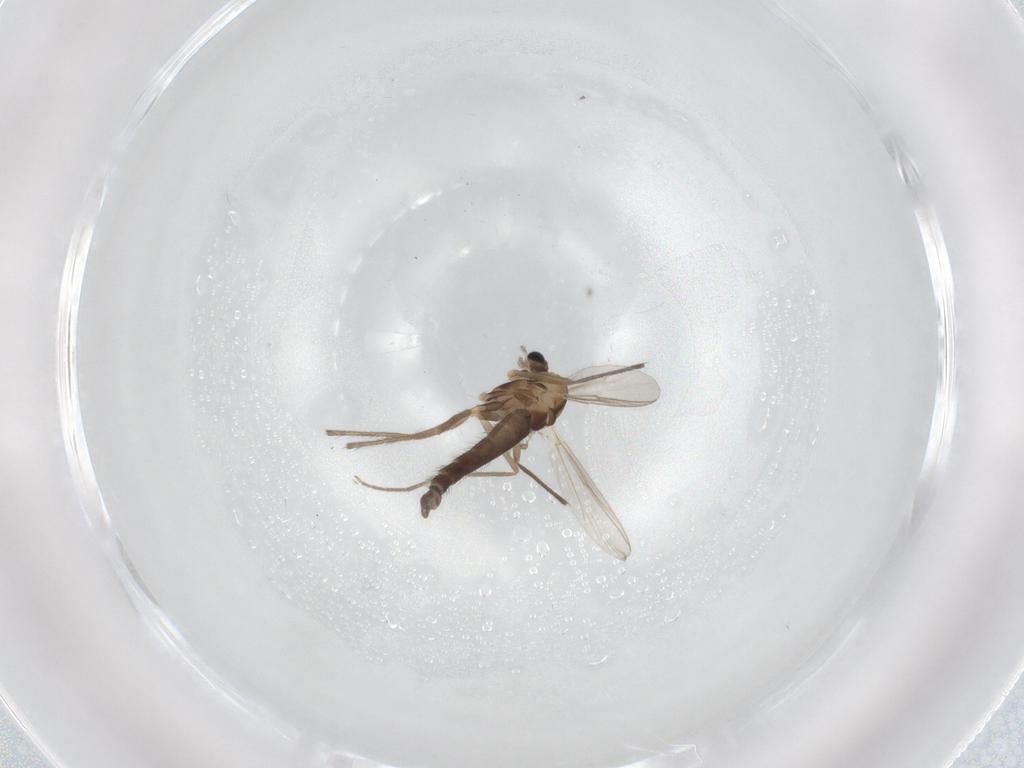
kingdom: Animalia
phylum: Arthropoda
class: Insecta
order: Diptera
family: Chironomidae
